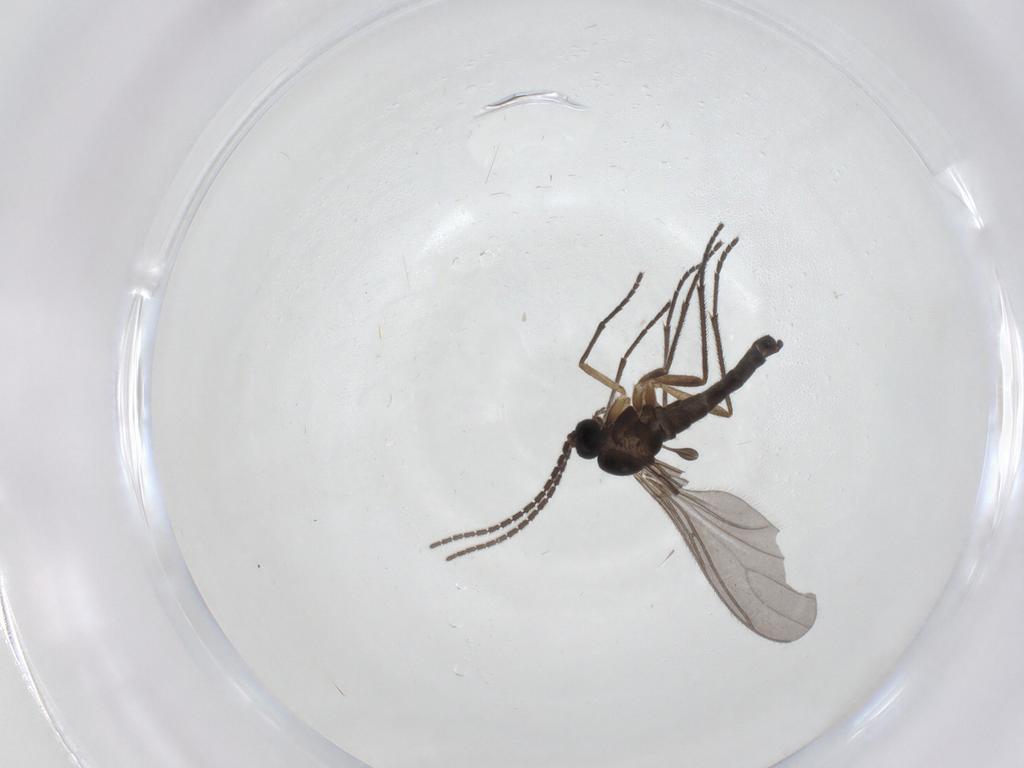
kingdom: Animalia
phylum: Arthropoda
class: Insecta
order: Diptera
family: Sciaridae
